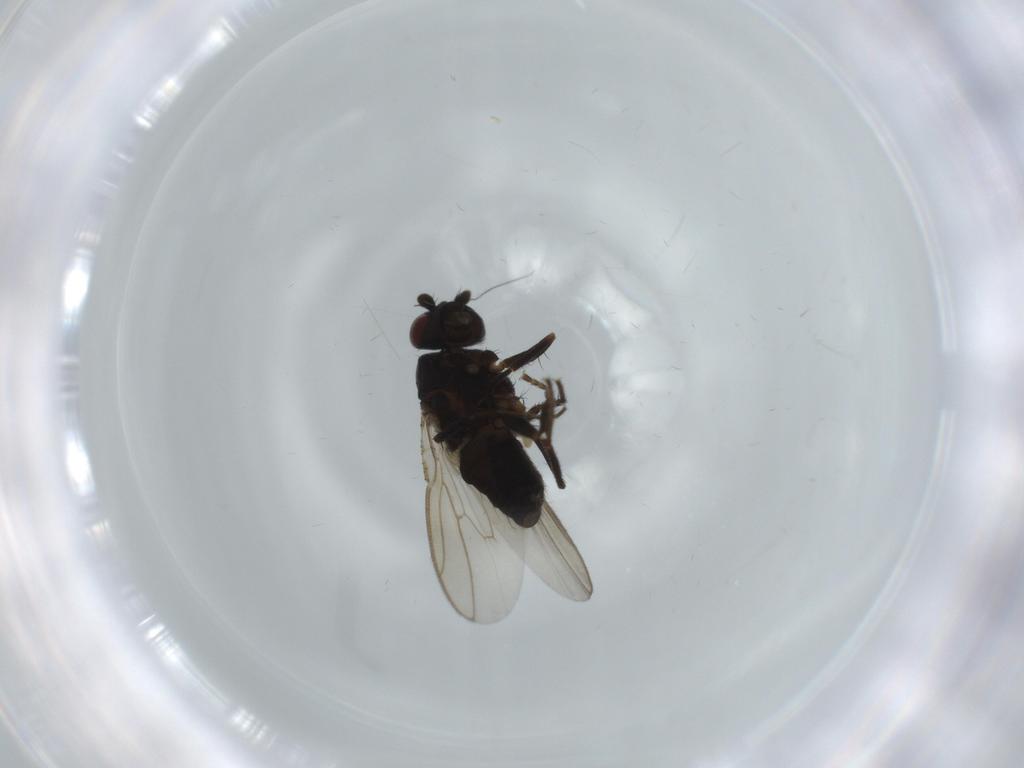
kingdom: Animalia
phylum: Arthropoda
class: Insecta
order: Diptera
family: Sphaeroceridae
